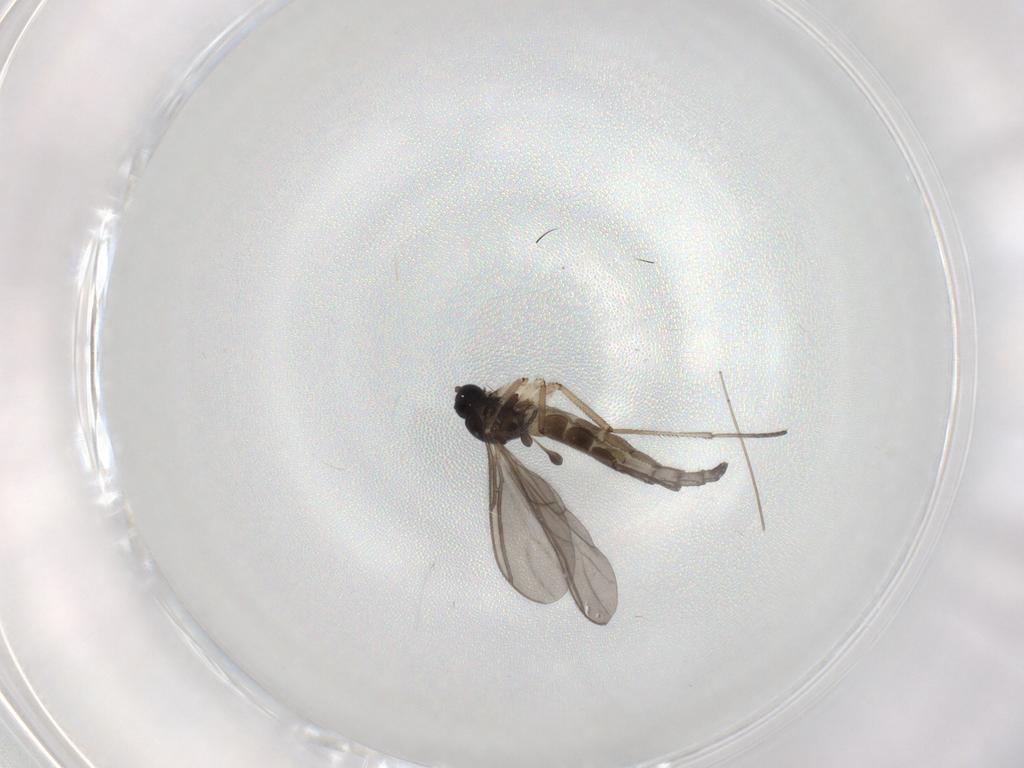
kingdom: Animalia
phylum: Arthropoda
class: Insecta
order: Diptera
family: Sciaridae
